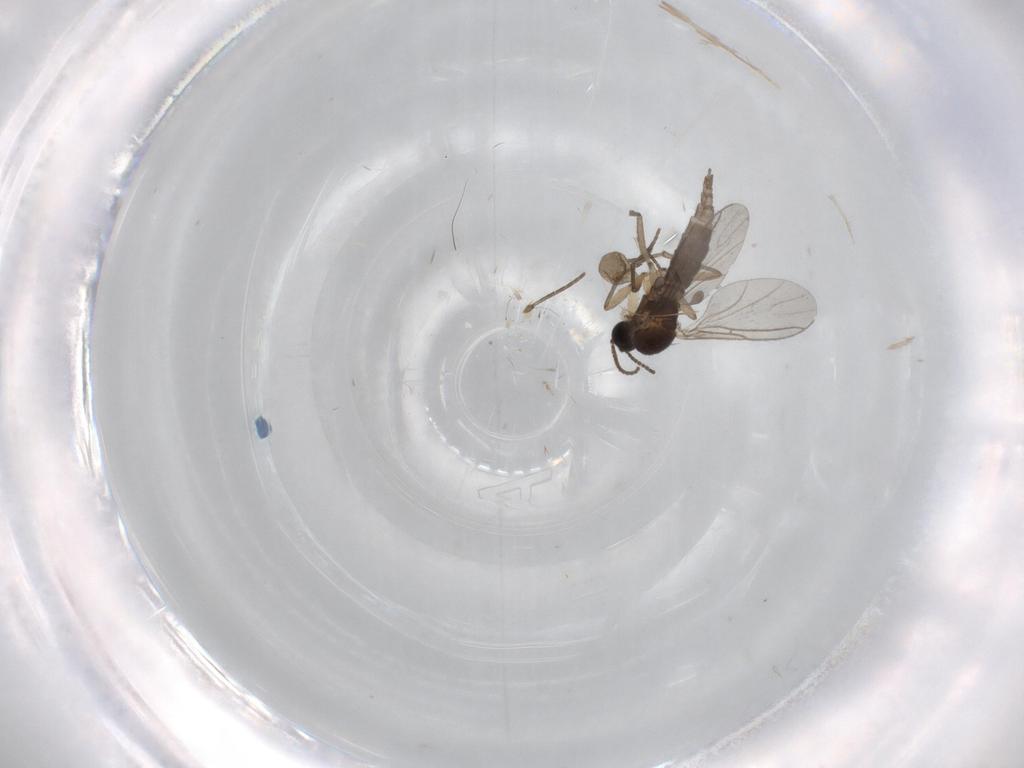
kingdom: Animalia
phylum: Arthropoda
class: Insecta
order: Diptera
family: Sciaridae
